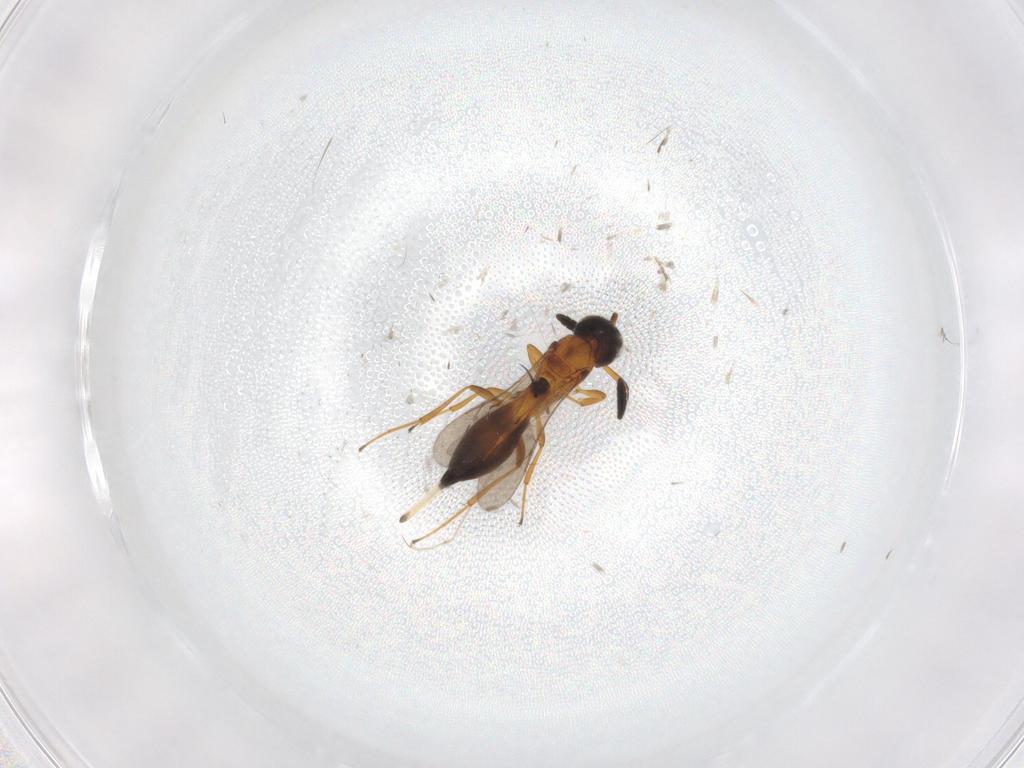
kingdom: Animalia
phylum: Arthropoda
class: Insecta
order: Hymenoptera
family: Scelionidae
